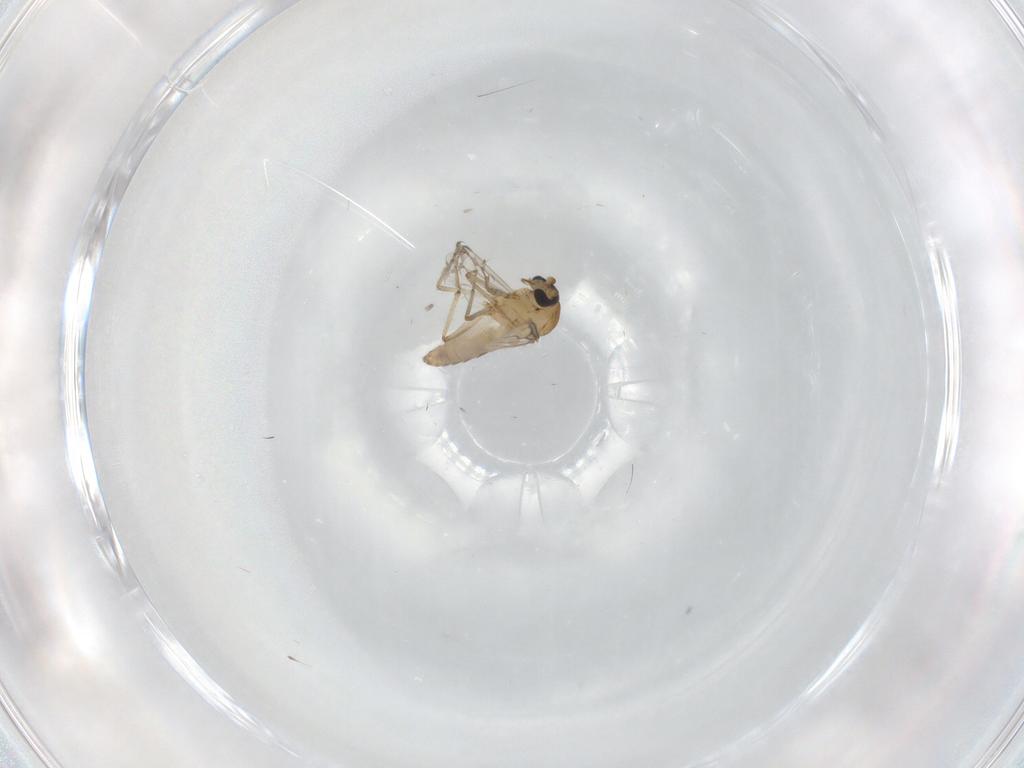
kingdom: Animalia
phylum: Arthropoda
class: Insecta
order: Diptera
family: Ceratopogonidae
